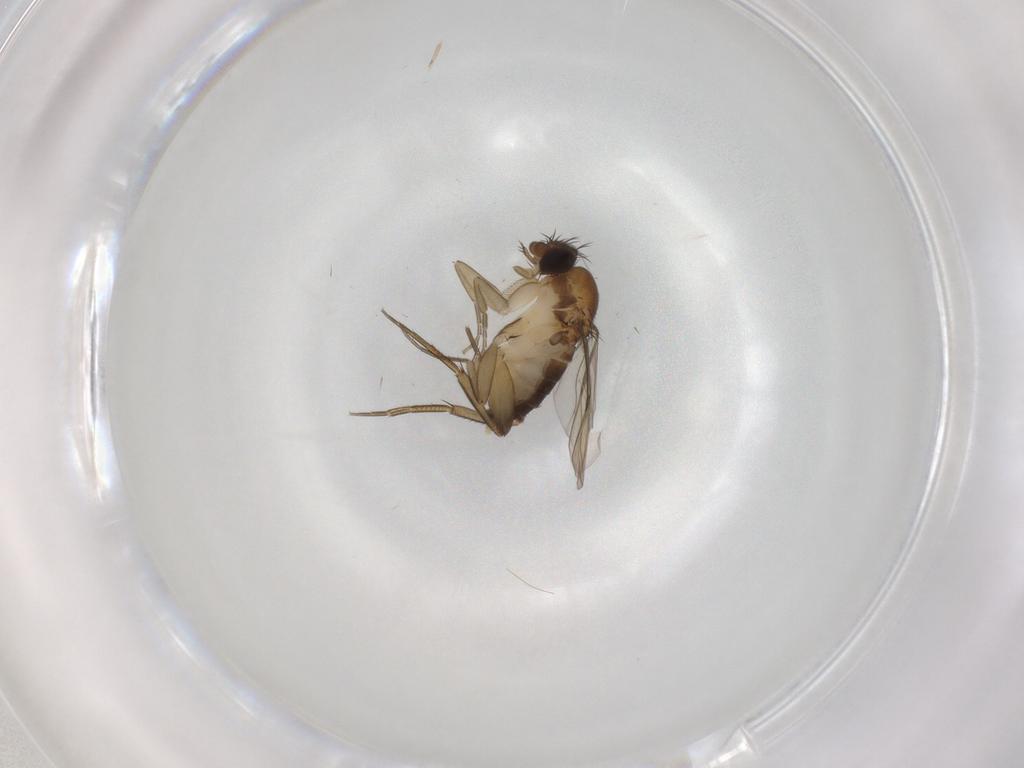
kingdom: Animalia
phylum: Arthropoda
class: Insecta
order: Diptera
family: Phoridae
